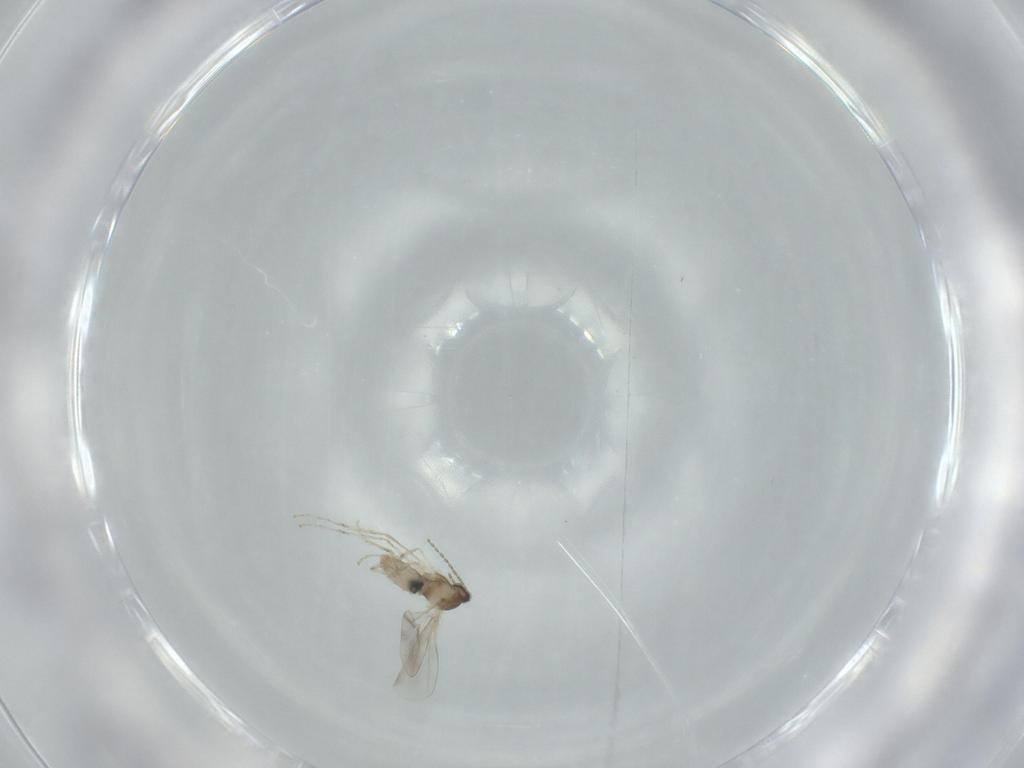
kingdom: Animalia
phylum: Arthropoda
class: Insecta
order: Diptera
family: Cecidomyiidae
